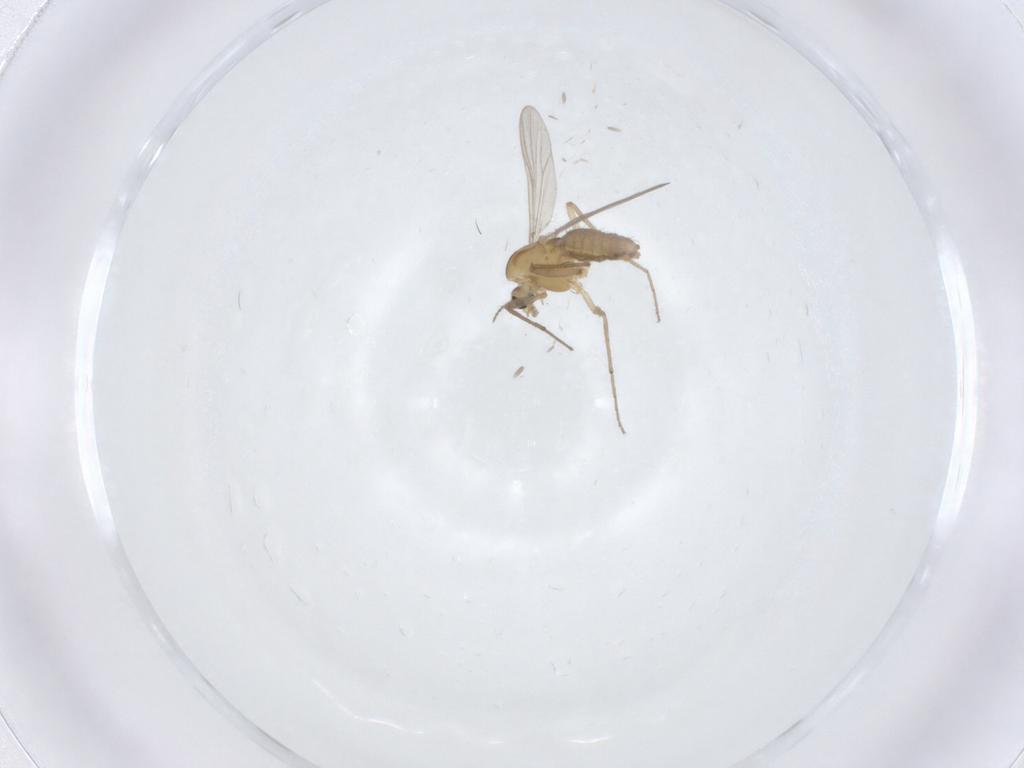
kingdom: Animalia
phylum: Arthropoda
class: Insecta
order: Diptera
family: Chironomidae
